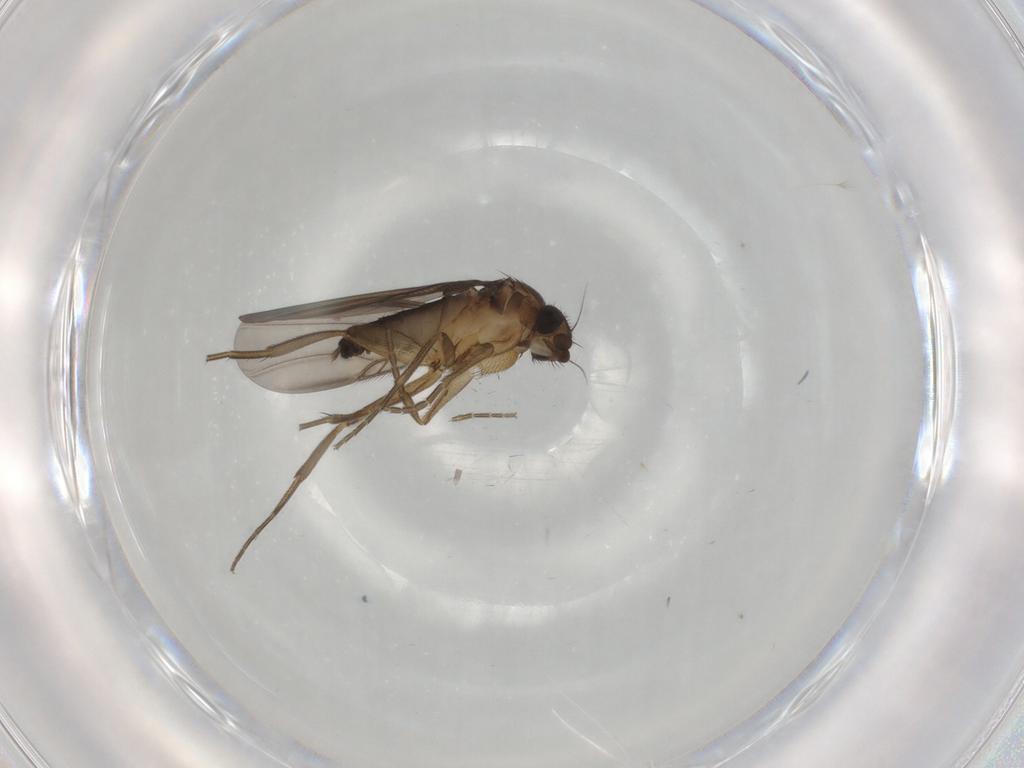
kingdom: Animalia
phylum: Arthropoda
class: Insecta
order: Diptera
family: Phoridae
